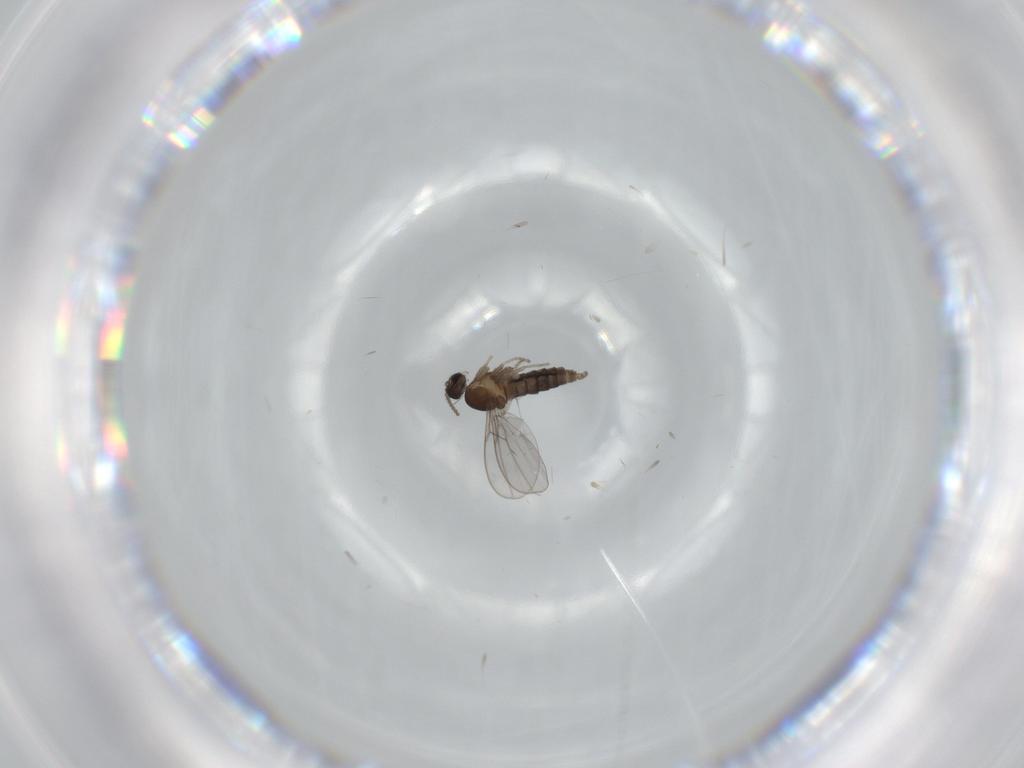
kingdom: Animalia
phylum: Arthropoda
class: Insecta
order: Diptera
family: Cecidomyiidae
